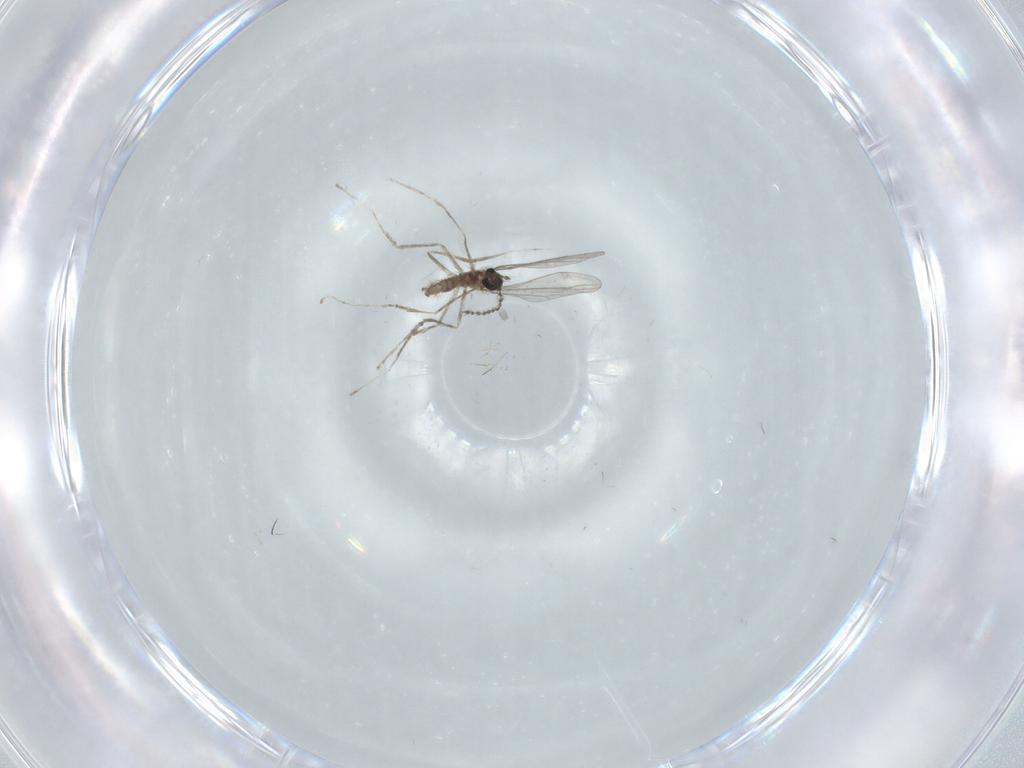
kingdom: Animalia
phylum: Arthropoda
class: Insecta
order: Diptera
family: Cecidomyiidae
